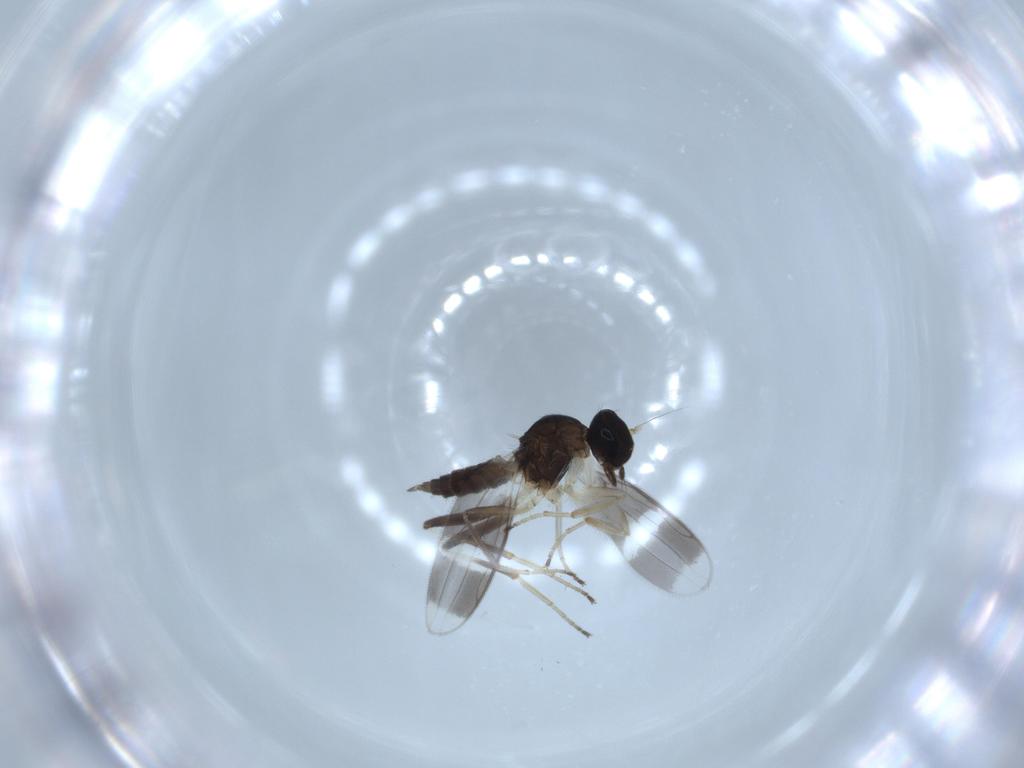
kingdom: Animalia
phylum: Arthropoda
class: Insecta
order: Diptera
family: Hybotidae
